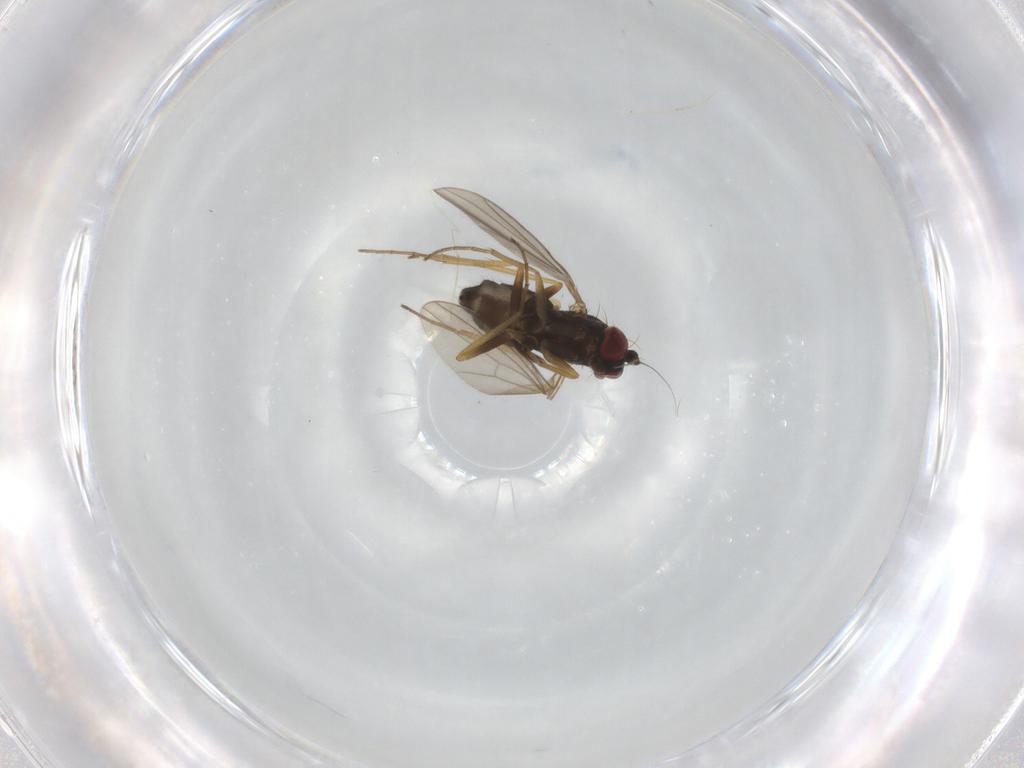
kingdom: Animalia
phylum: Arthropoda
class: Insecta
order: Diptera
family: Dolichopodidae
